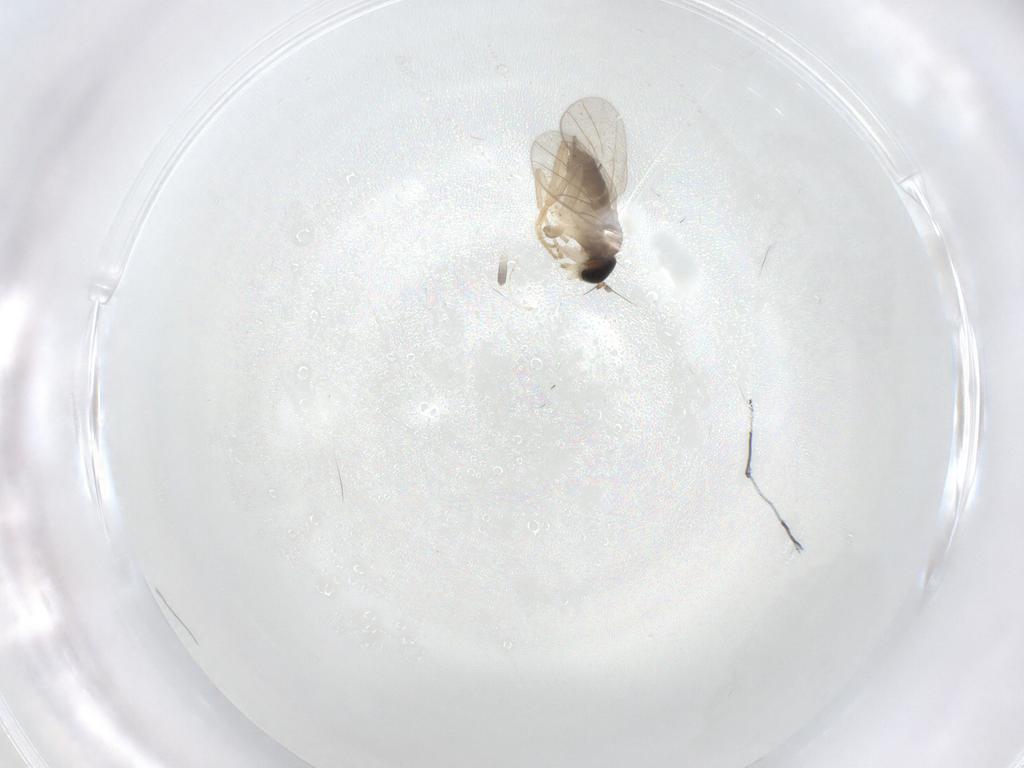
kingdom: Animalia
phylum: Arthropoda
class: Insecta
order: Diptera
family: Hybotidae
